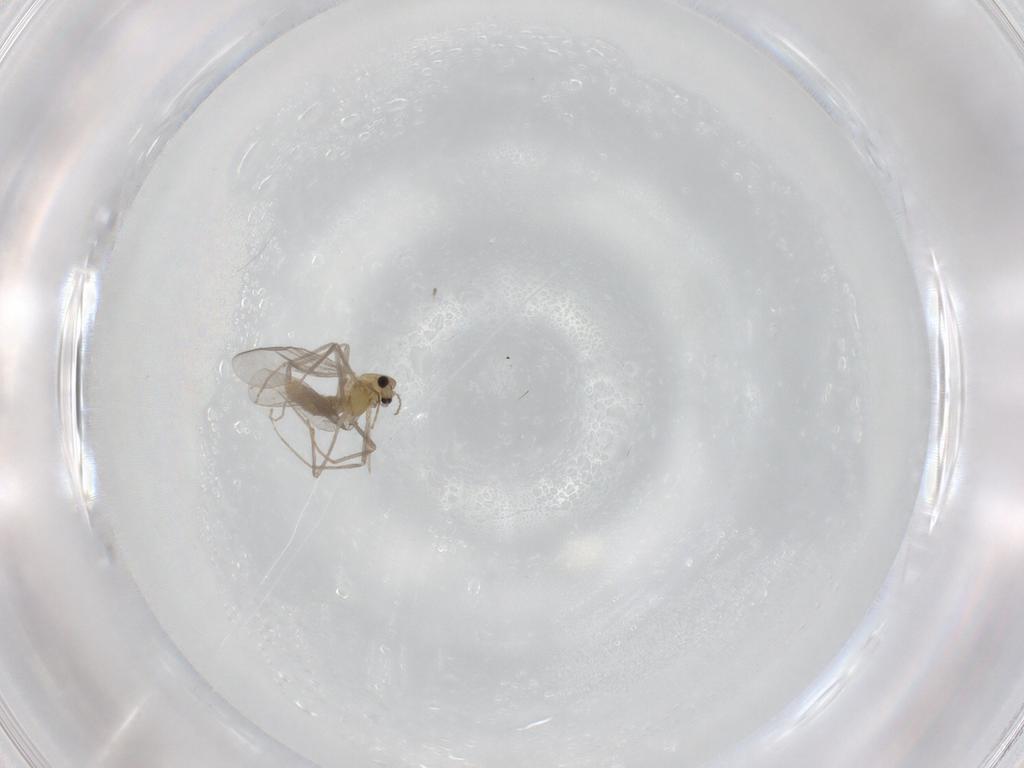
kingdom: Animalia
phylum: Arthropoda
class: Insecta
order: Diptera
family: Chironomidae
